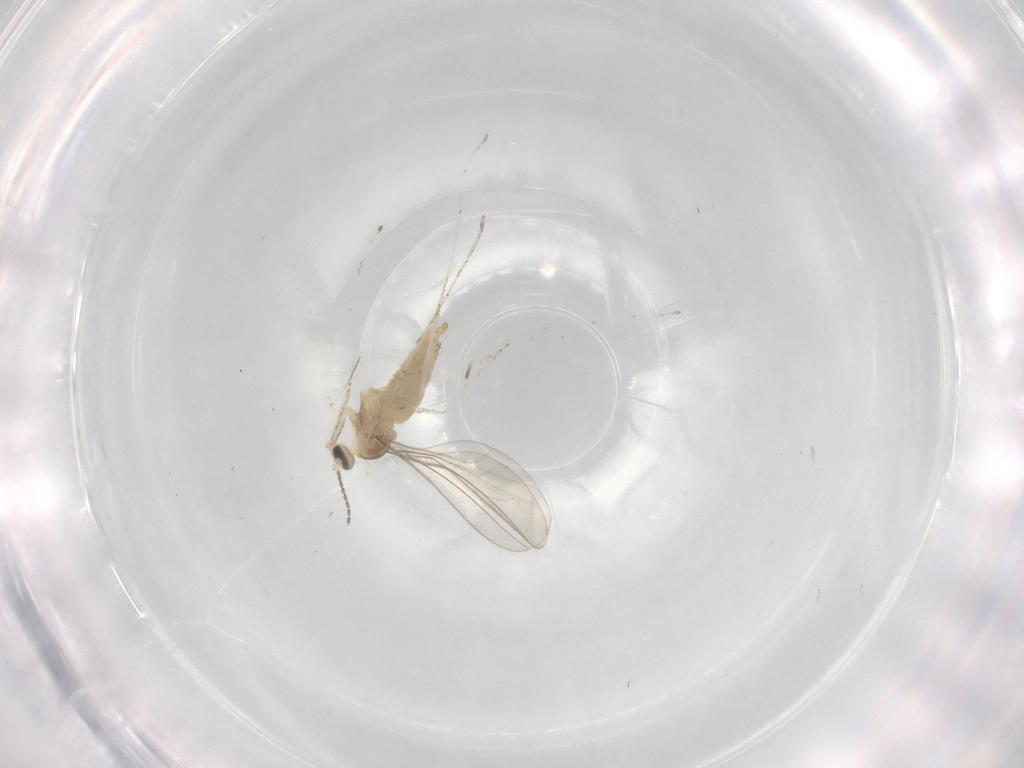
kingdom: Animalia
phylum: Arthropoda
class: Insecta
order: Diptera
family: Cecidomyiidae
